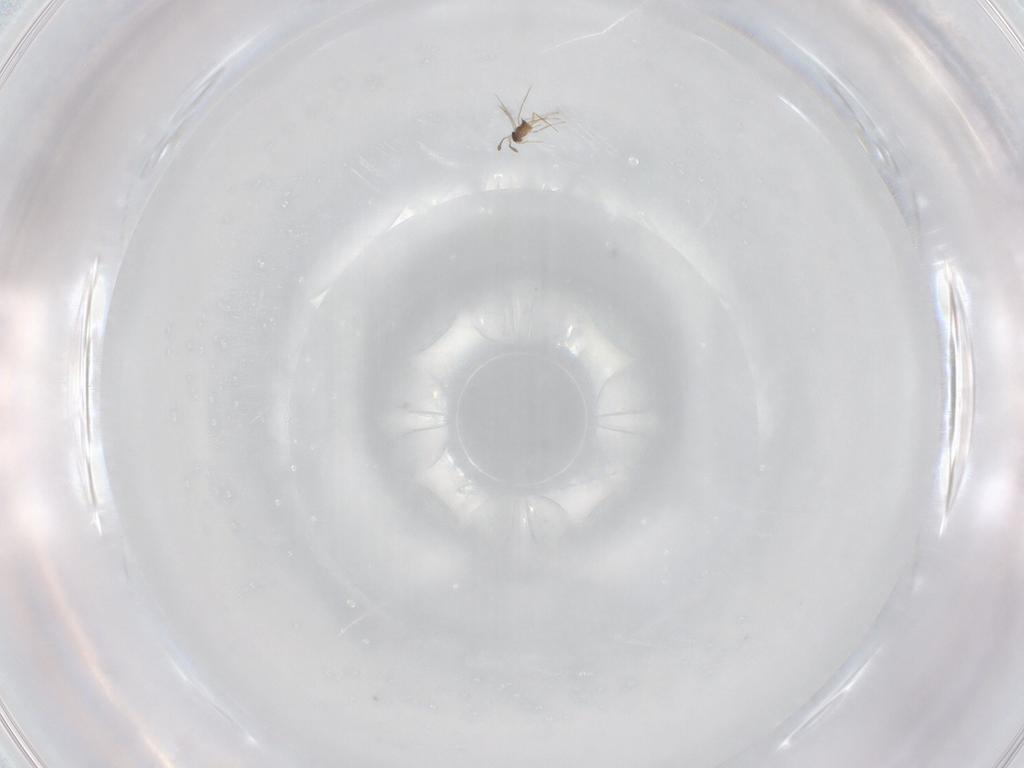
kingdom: Animalia
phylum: Arthropoda
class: Insecta
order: Hymenoptera
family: Mymaridae
